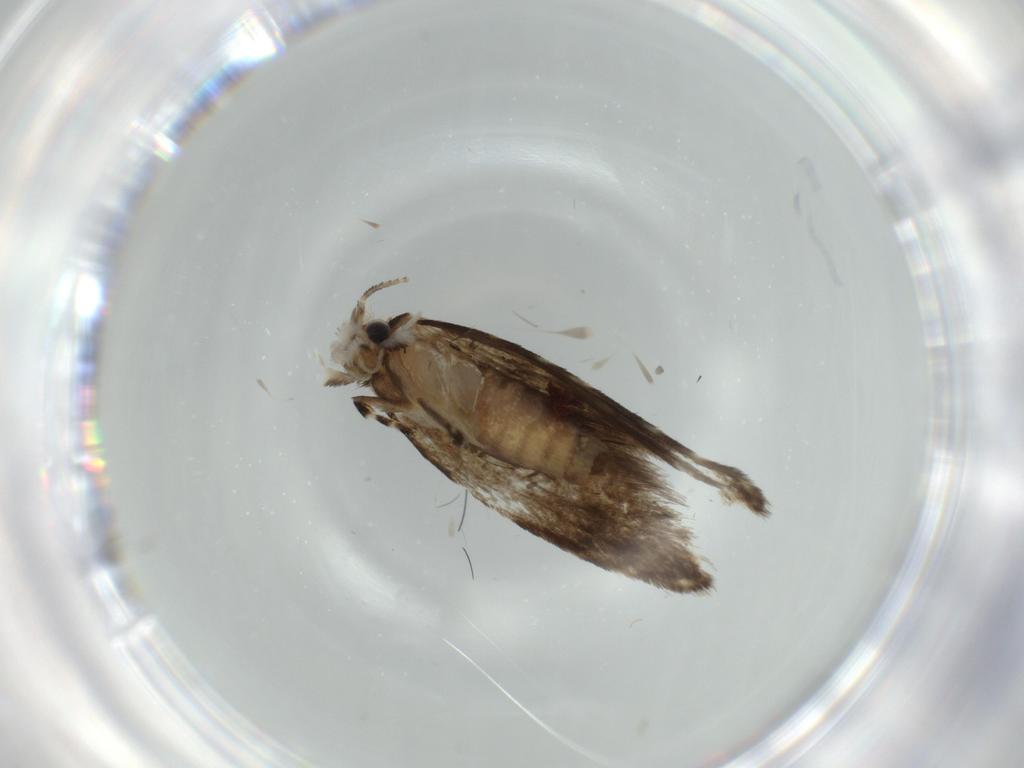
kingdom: Animalia
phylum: Arthropoda
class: Insecta
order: Lepidoptera
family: Tineidae
